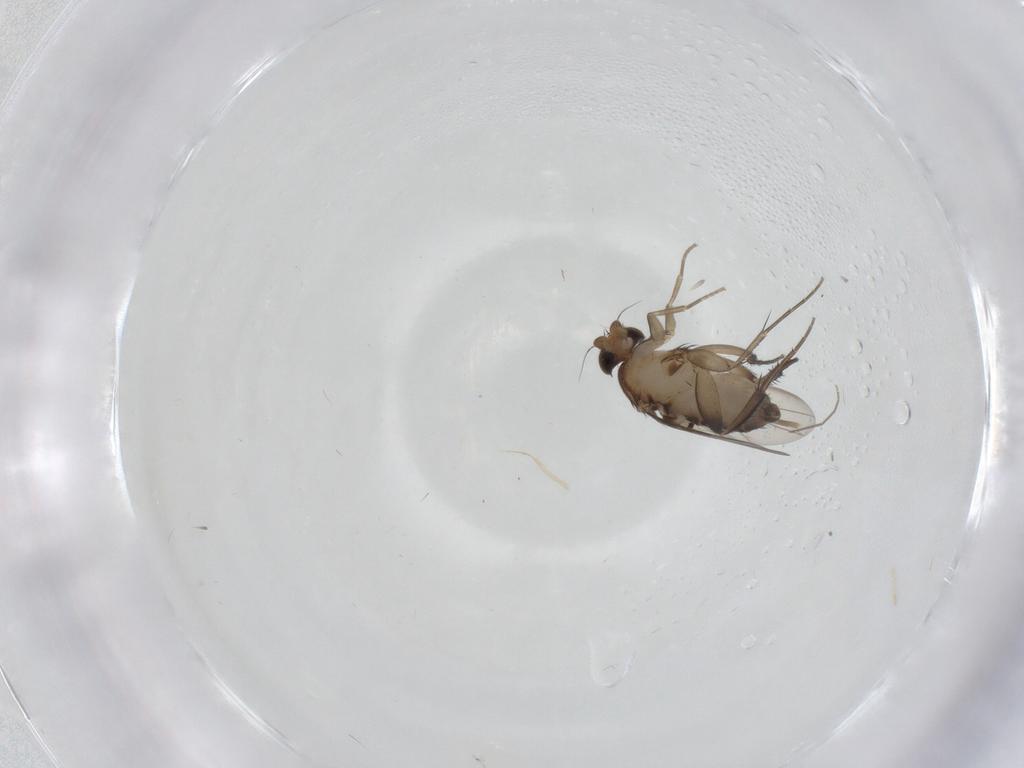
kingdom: Animalia
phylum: Arthropoda
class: Insecta
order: Diptera
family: Phoridae
